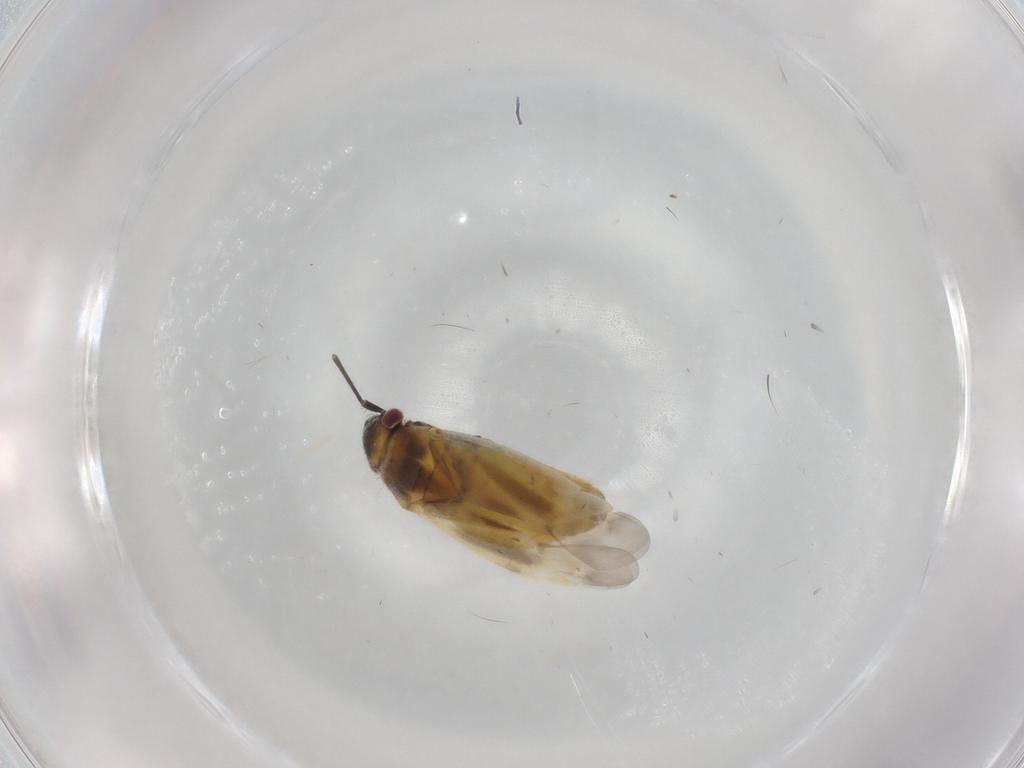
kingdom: Animalia
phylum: Arthropoda
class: Insecta
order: Hemiptera
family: Miridae
